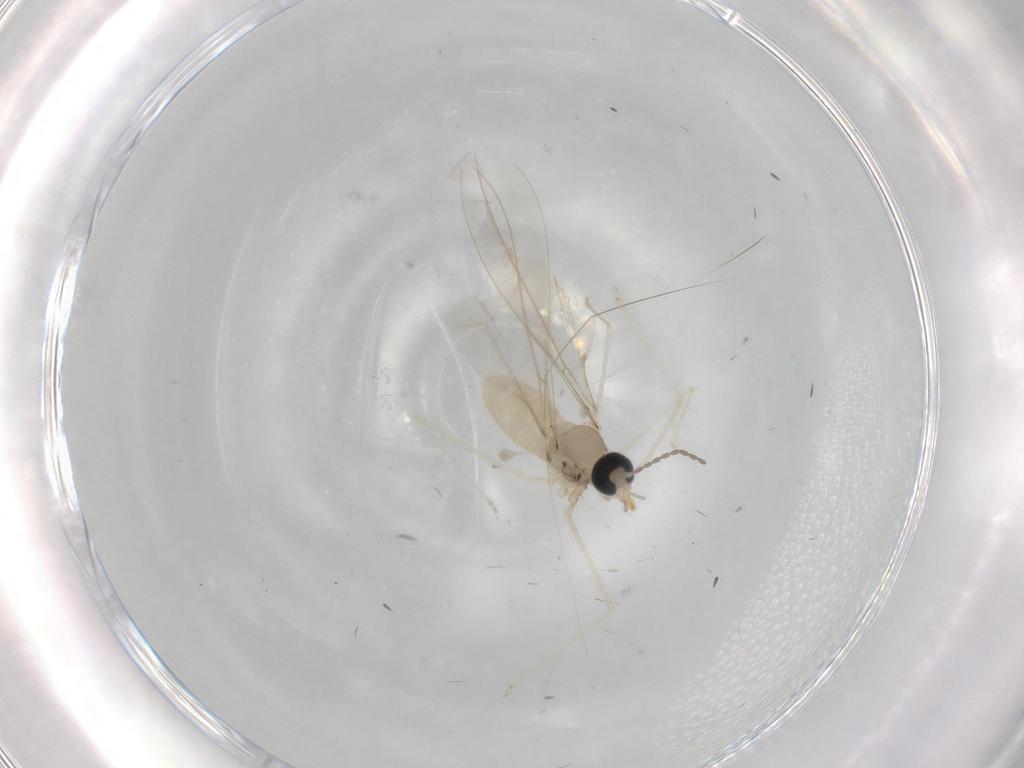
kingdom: Animalia
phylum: Arthropoda
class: Insecta
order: Diptera
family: Cecidomyiidae
